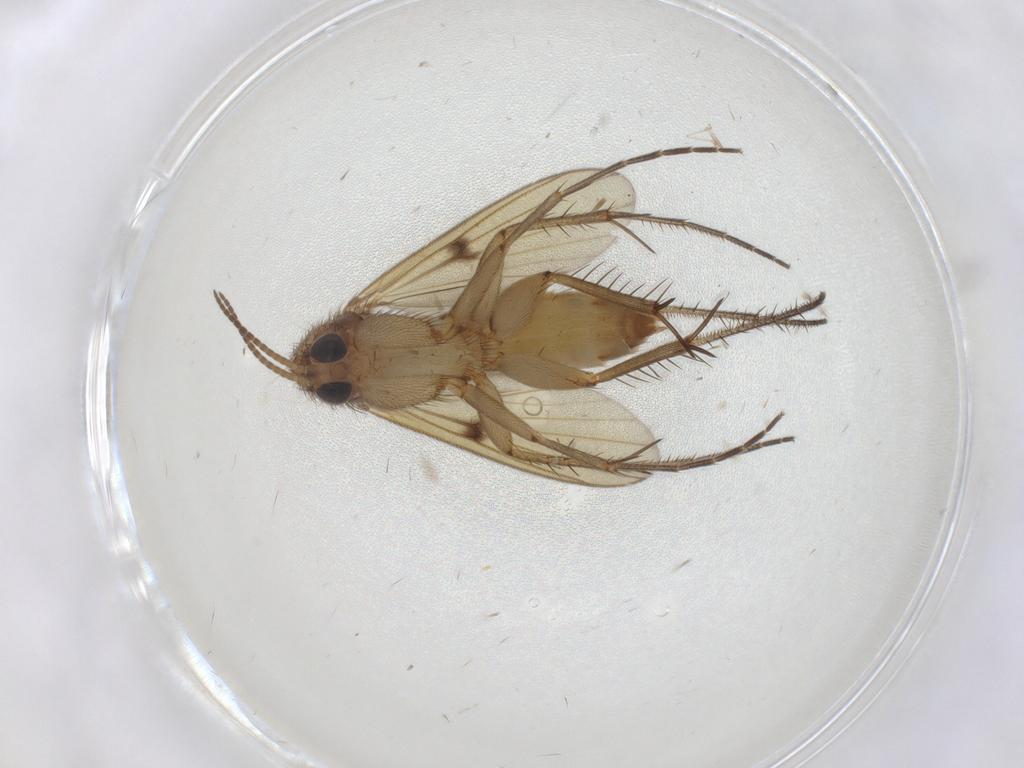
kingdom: Animalia
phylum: Arthropoda
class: Insecta
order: Diptera
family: Cecidomyiidae
